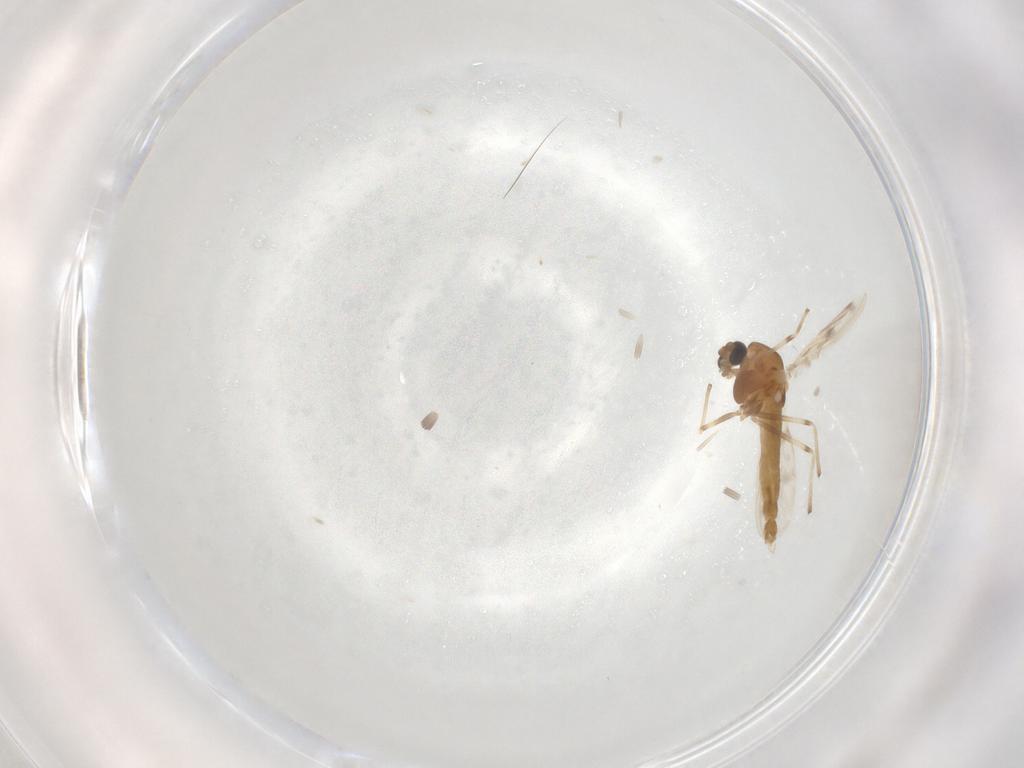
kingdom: Animalia
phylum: Arthropoda
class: Insecta
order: Diptera
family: Chironomidae
